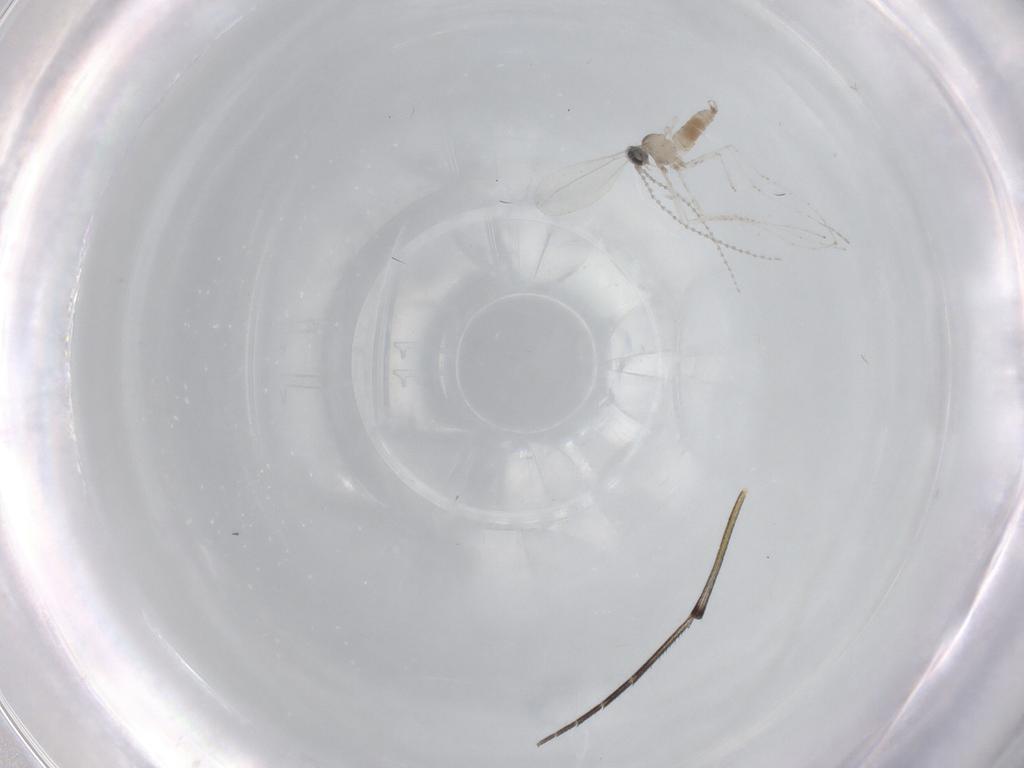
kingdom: Animalia
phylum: Arthropoda
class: Insecta
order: Diptera
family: Cecidomyiidae
